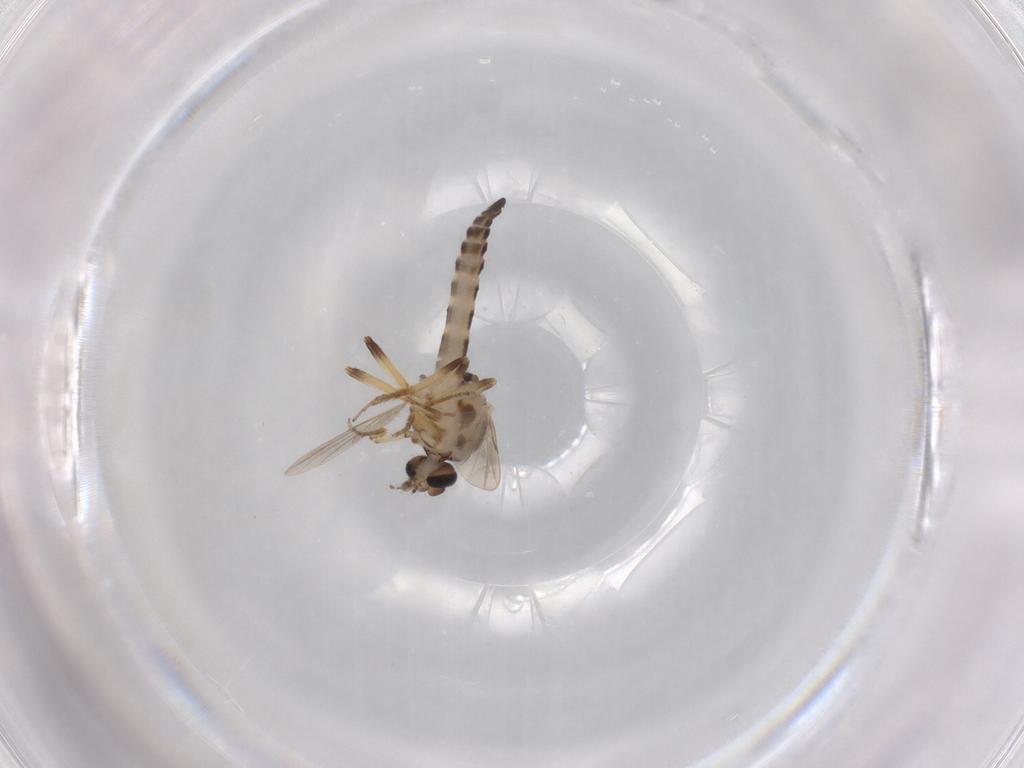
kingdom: Animalia
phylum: Arthropoda
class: Insecta
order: Diptera
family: Ceratopogonidae
